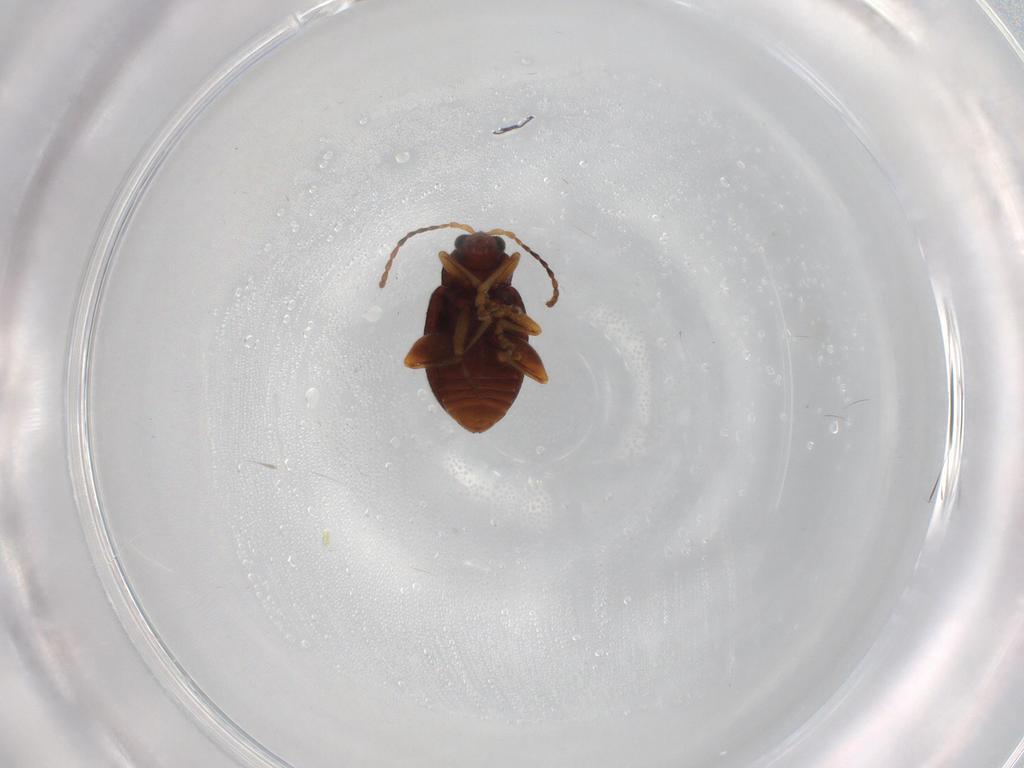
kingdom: Animalia
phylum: Arthropoda
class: Insecta
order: Coleoptera
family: Chrysomelidae
